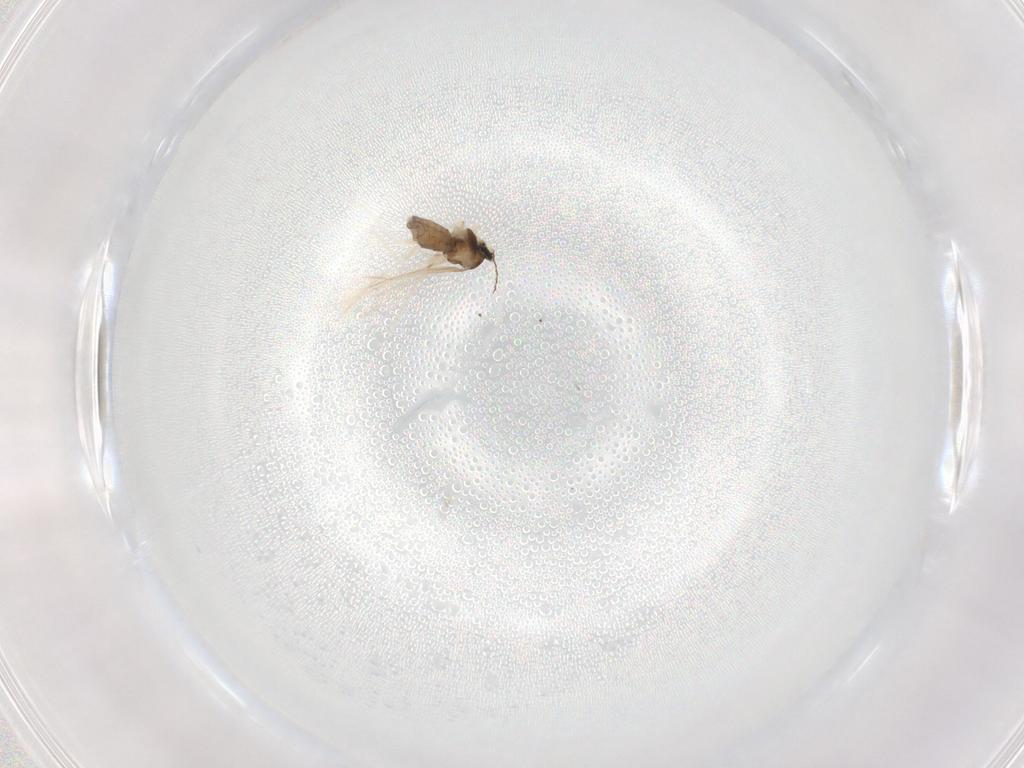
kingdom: Animalia
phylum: Arthropoda
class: Insecta
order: Diptera
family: Cecidomyiidae
